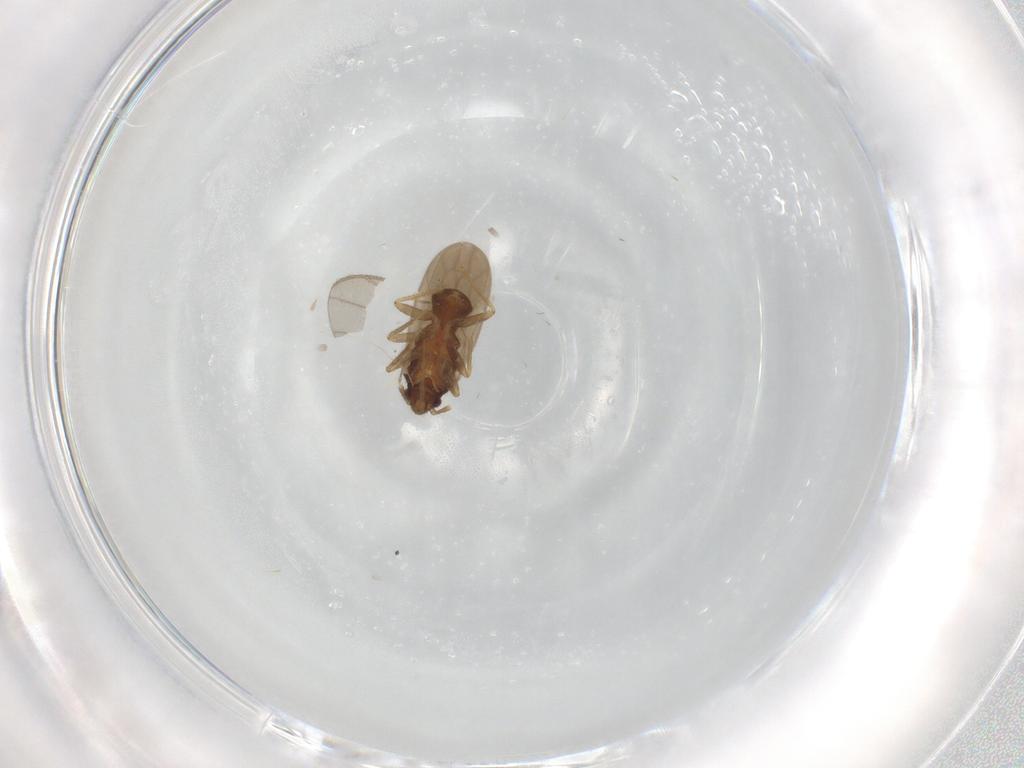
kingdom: Animalia
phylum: Arthropoda
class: Insecta
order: Hemiptera
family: Ceratocombidae
